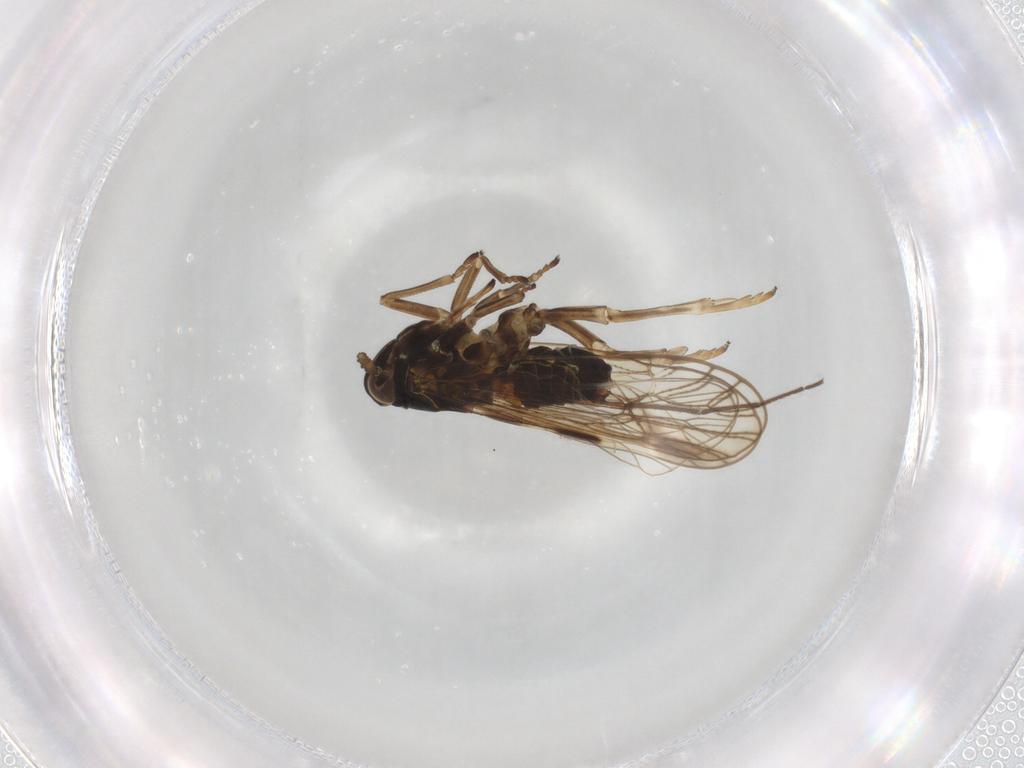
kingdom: Animalia
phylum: Arthropoda
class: Insecta
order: Hemiptera
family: Delphacidae
